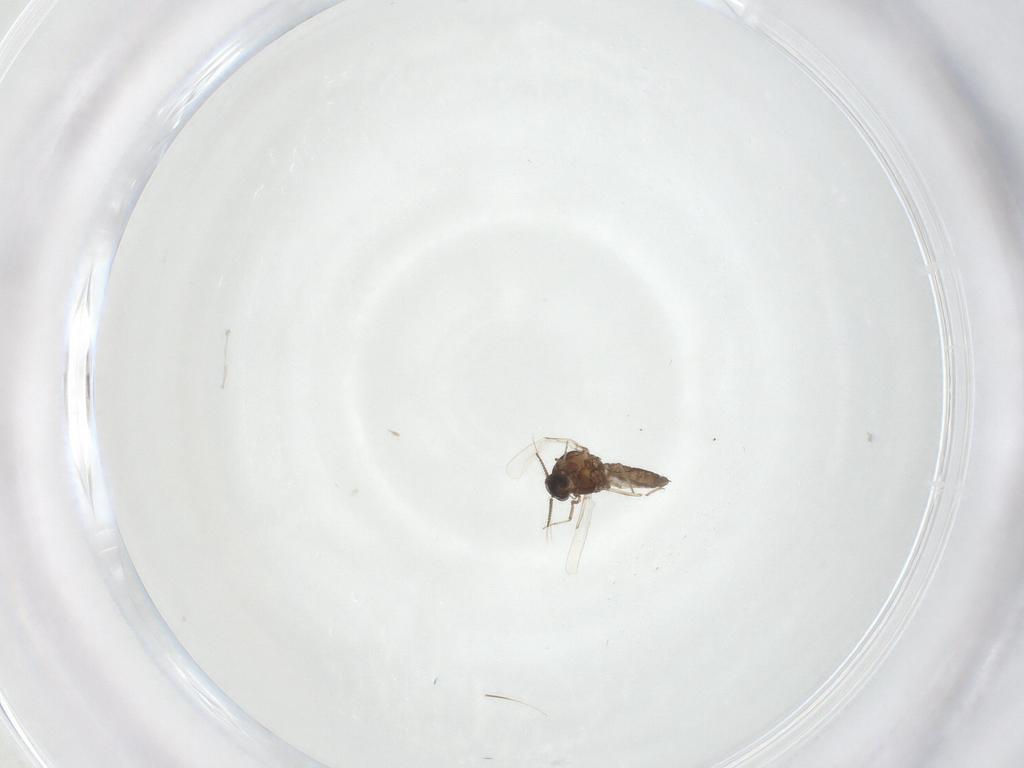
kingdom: Animalia
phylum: Arthropoda
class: Insecta
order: Diptera
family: Ceratopogonidae
